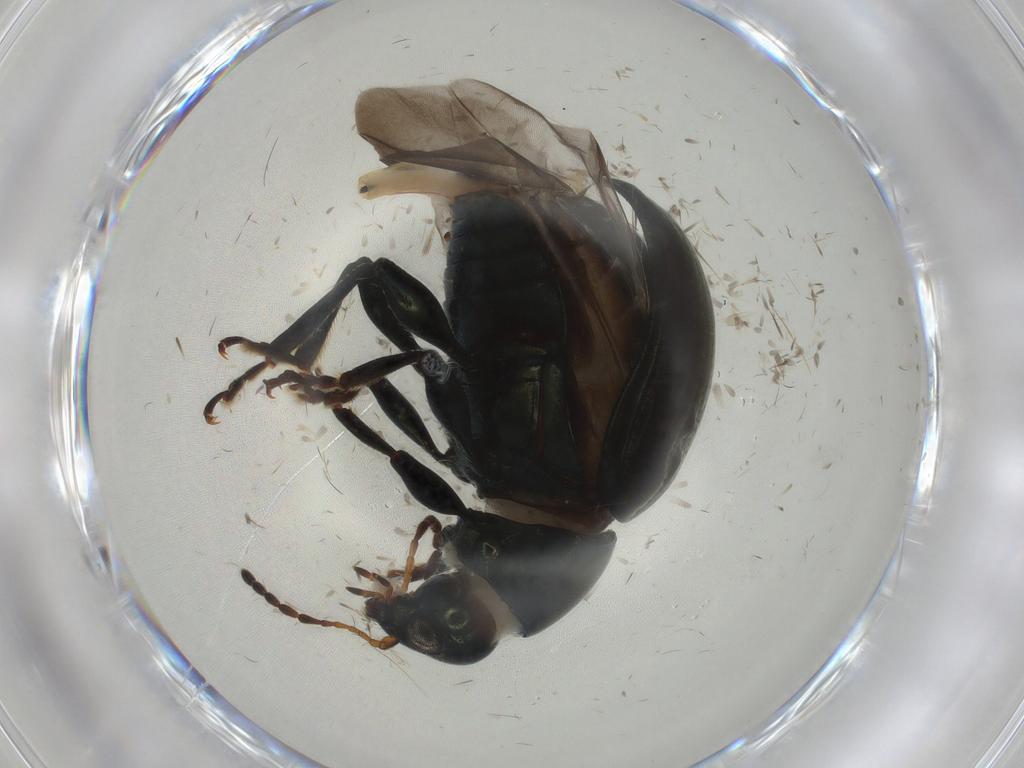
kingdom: Animalia
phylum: Arthropoda
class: Insecta
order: Coleoptera
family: Chrysomelidae
